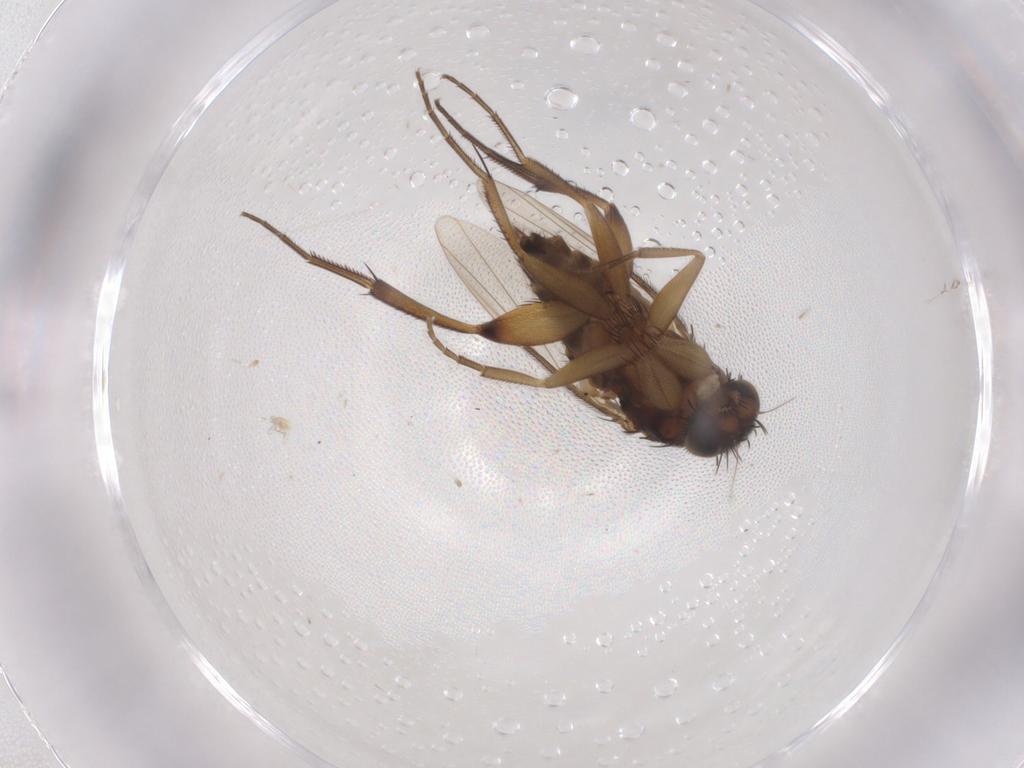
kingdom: Animalia
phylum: Arthropoda
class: Insecta
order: Diptera
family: Phoridae
